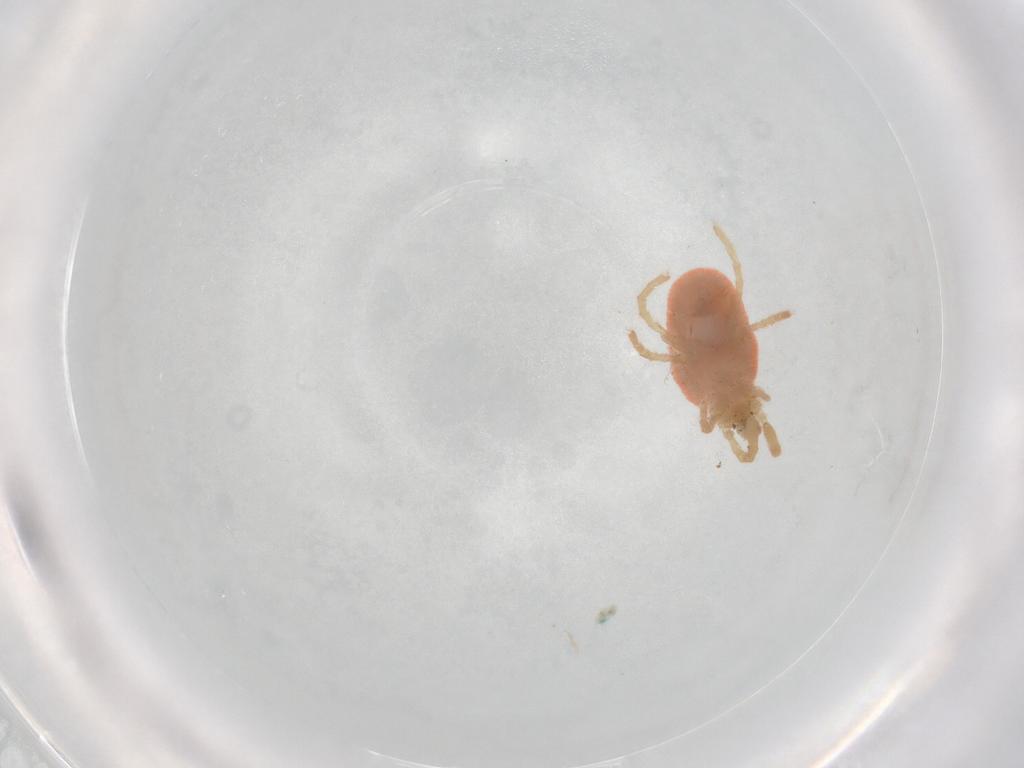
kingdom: Animalia
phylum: Arthropoda
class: Arachnida
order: Trombidiformes
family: Eupodidae
